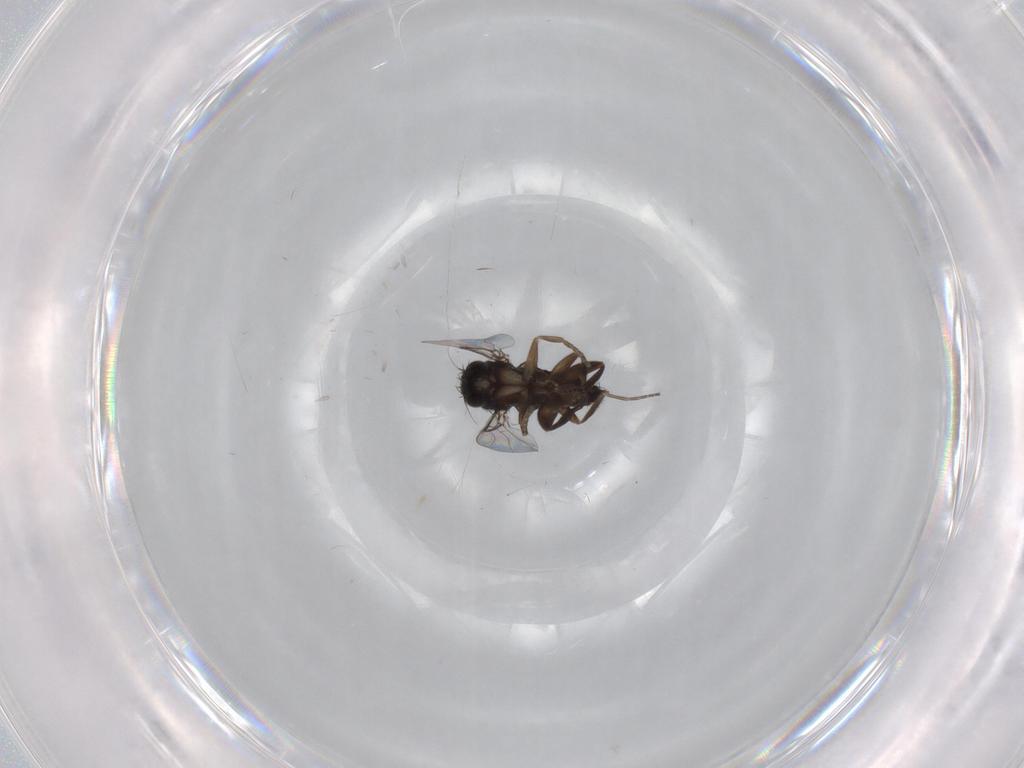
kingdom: Animalia
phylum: Arthropoda
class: Insecta
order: Diptera
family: Phoridae
